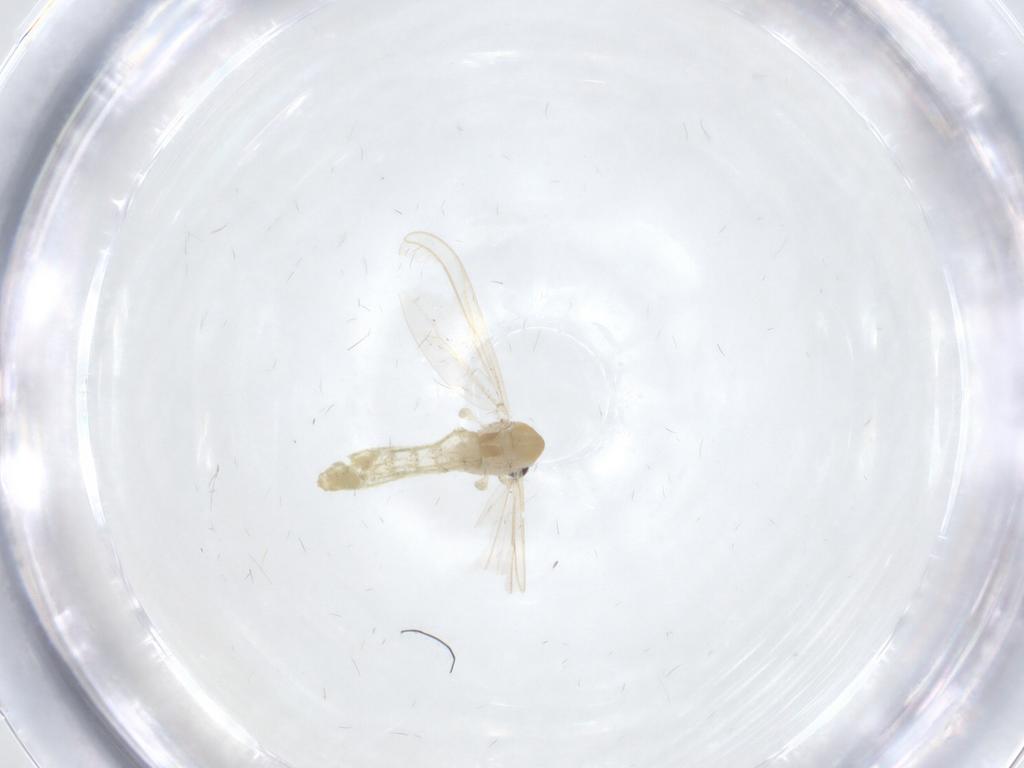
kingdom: Animalia
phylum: Arthropoda
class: Insecta
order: Diptera
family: Chironomidae
